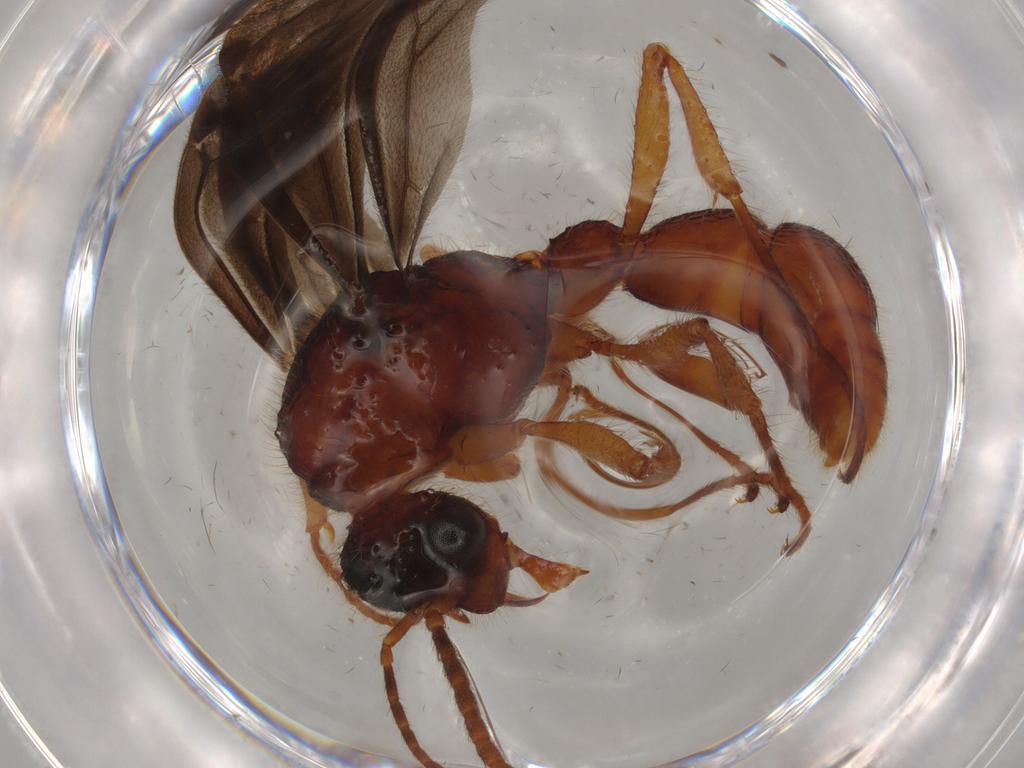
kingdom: Animalia
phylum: Arthropoda
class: Insecta
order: Hymenoptera
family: Formicidae
